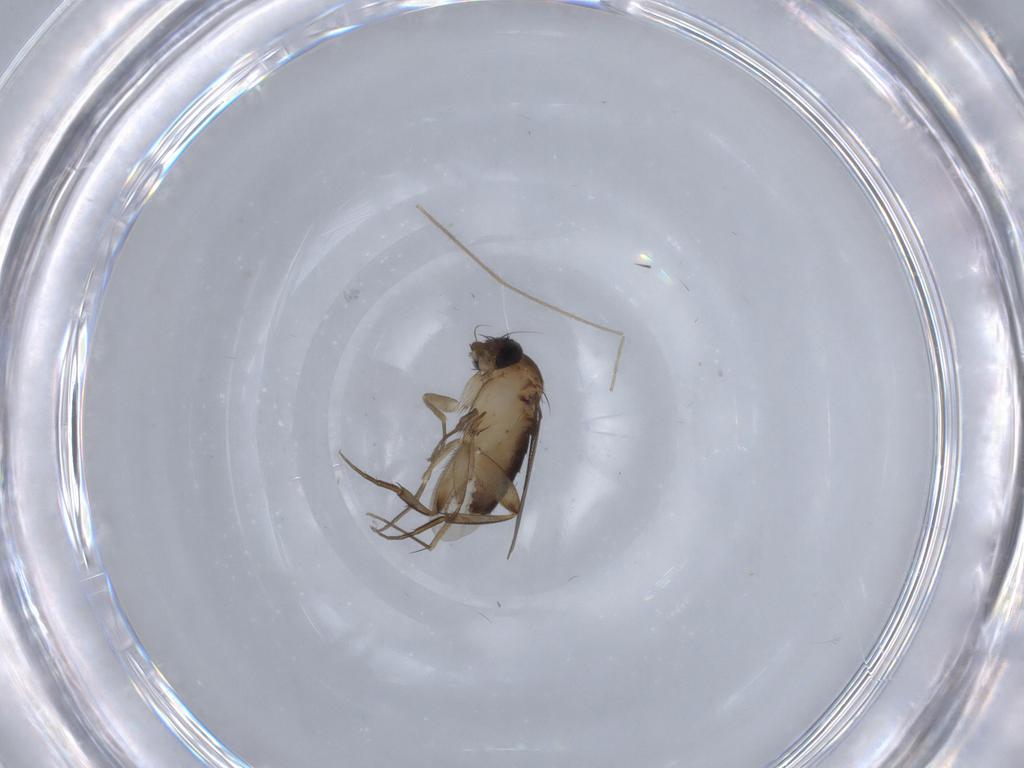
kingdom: Animalia
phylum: Arthropoda
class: Insecta
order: Diptera
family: Phoridae
